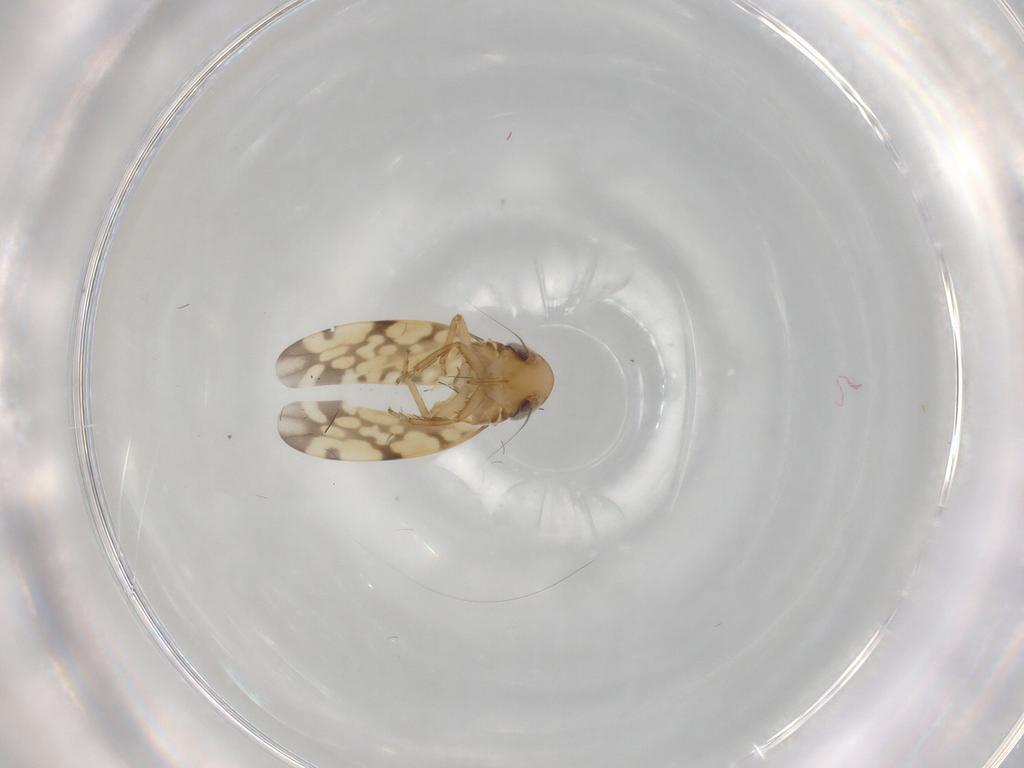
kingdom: Animalia
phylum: Arthropoda
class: Insecta
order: Hemiptera
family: Cicadellidae
